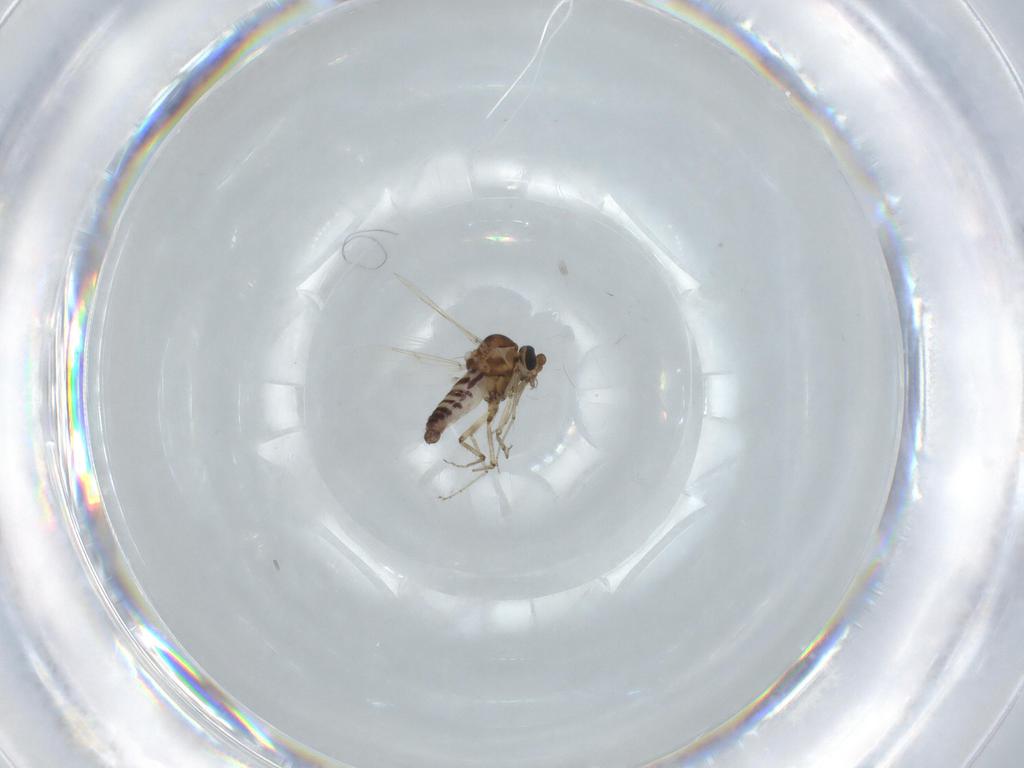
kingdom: Animalia
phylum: Arthropoda
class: Insecta
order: Diptera
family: Ceratopogonidae
